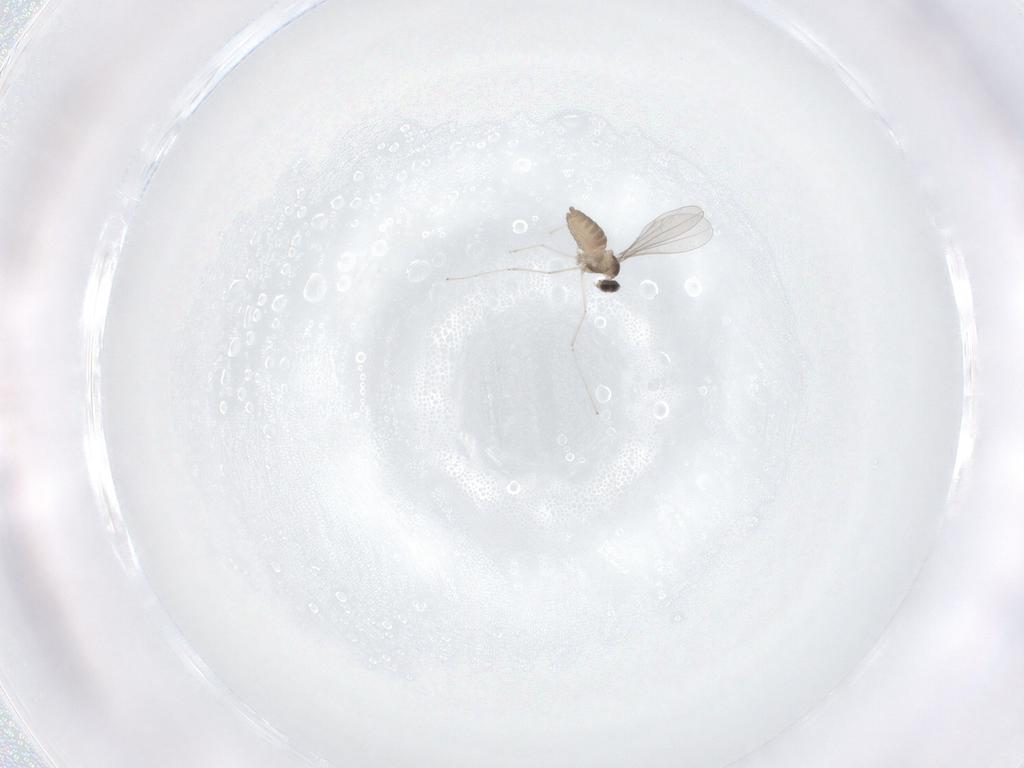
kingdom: Animalia
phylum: Arthropoda
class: Insecta
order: Diptera
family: Cecidomyiidae
